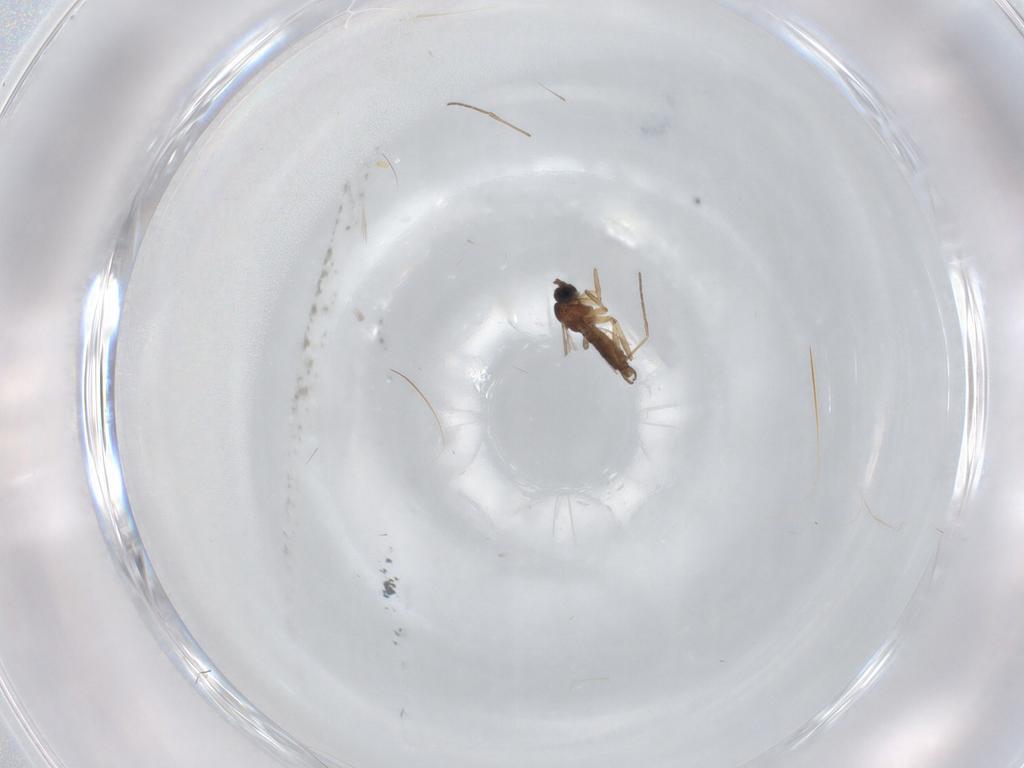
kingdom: Animalia
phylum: Arthropoda
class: Insecta
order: Diptera
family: Sciaridae
